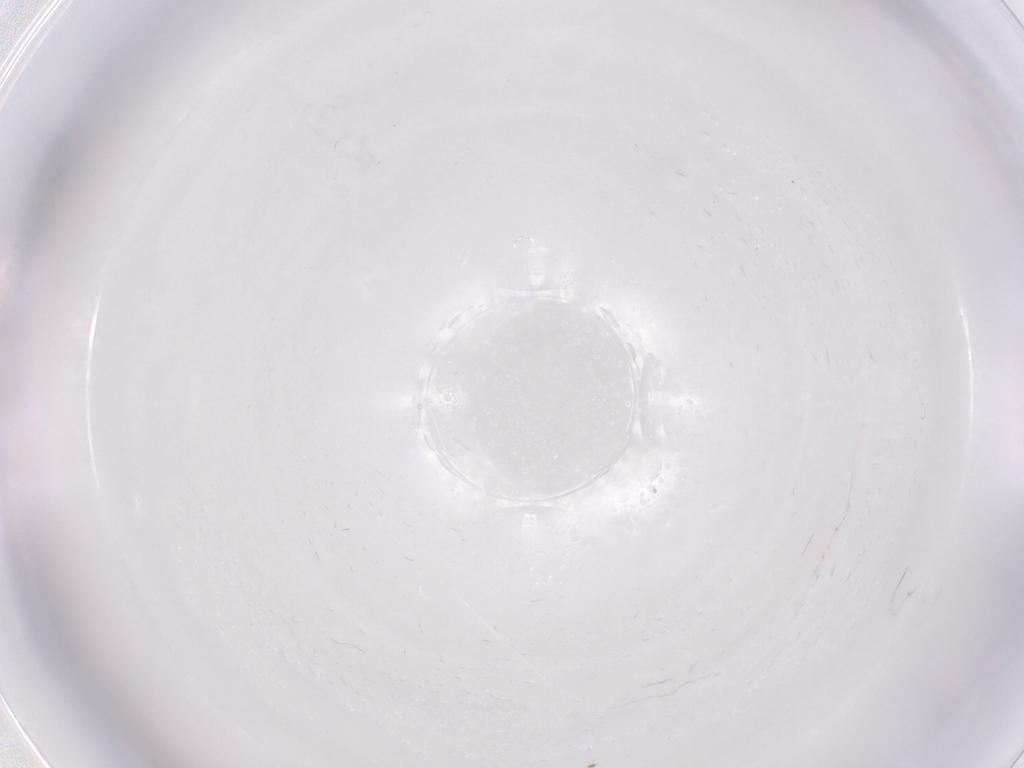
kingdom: Animalia
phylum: Arthropoda
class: Insecta
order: Diptera
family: Cecidomyiidae
